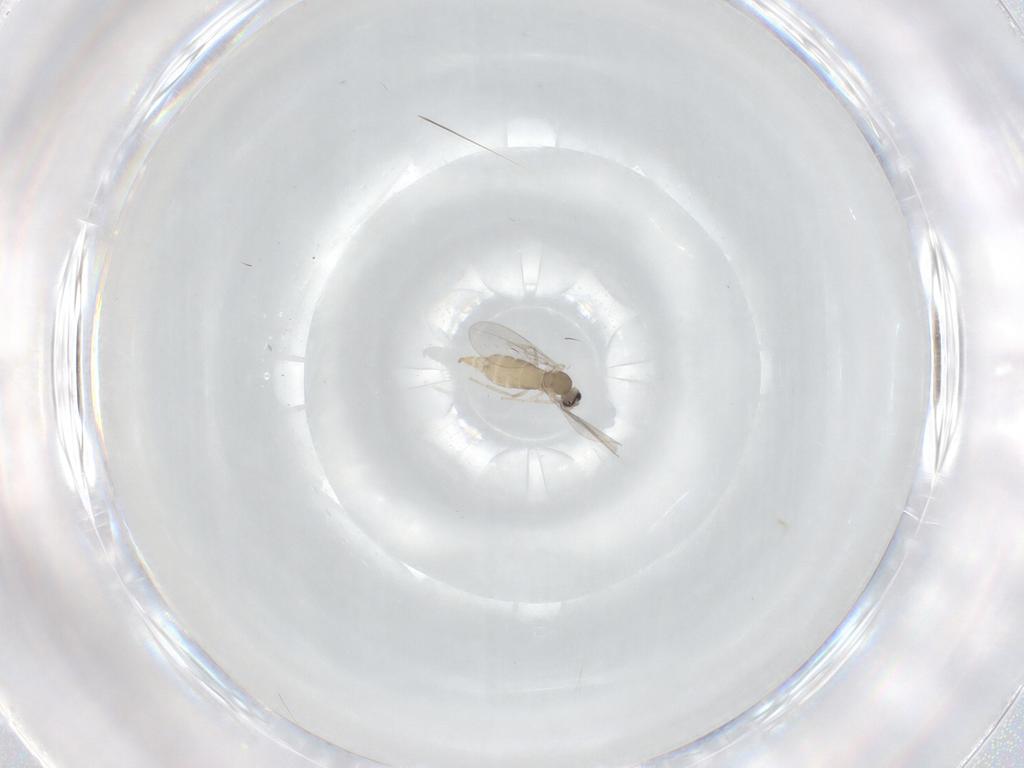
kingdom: Animalia
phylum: Arthropoda
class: Insecta
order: Diptera
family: Cecidomyiidae
